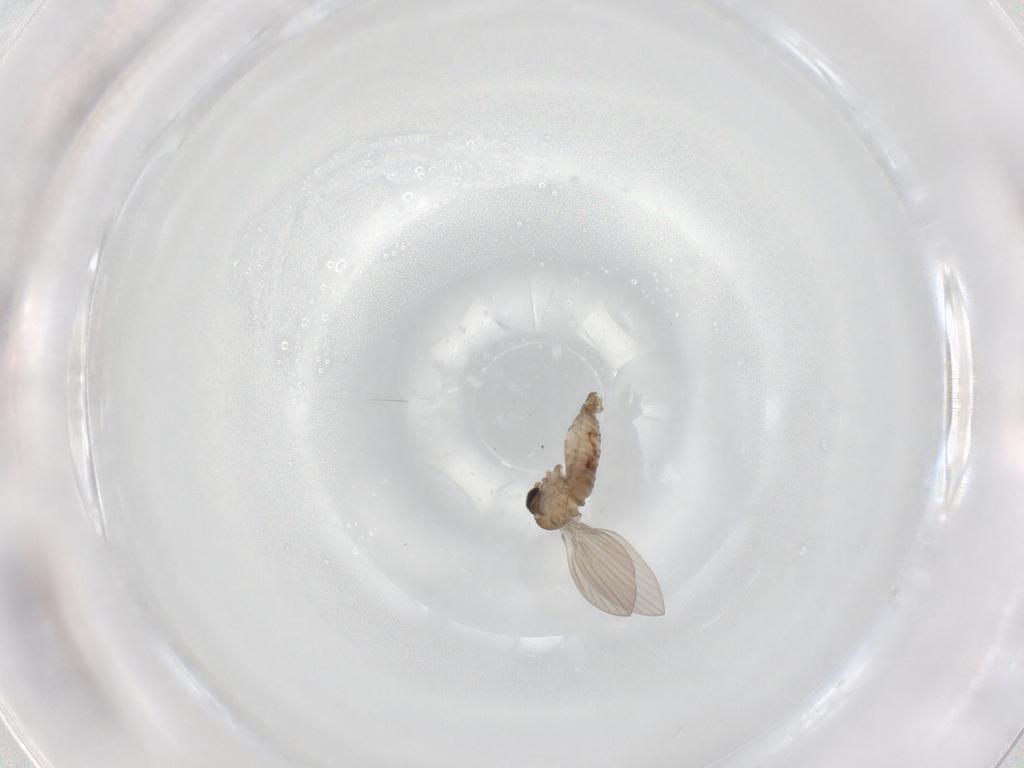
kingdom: Animalia
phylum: Arthropoda
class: Insecta
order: Diptera
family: Psychodidae
